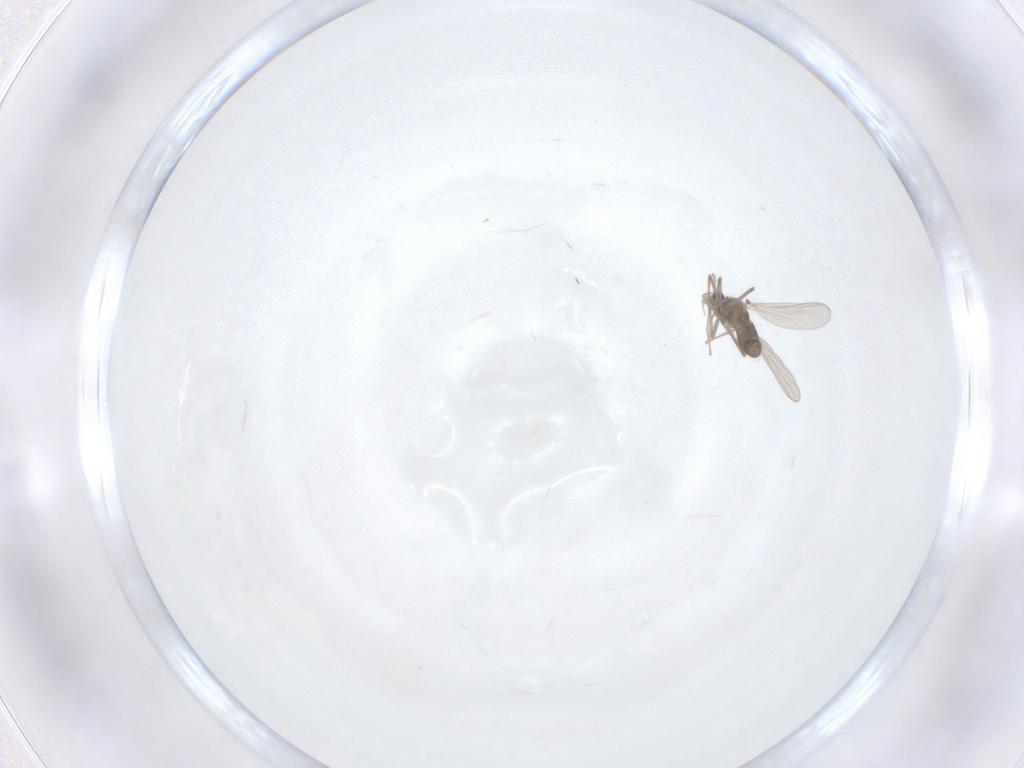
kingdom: Animalia
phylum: Arthropoda
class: Insecta
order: Diptera
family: Chironomidae
